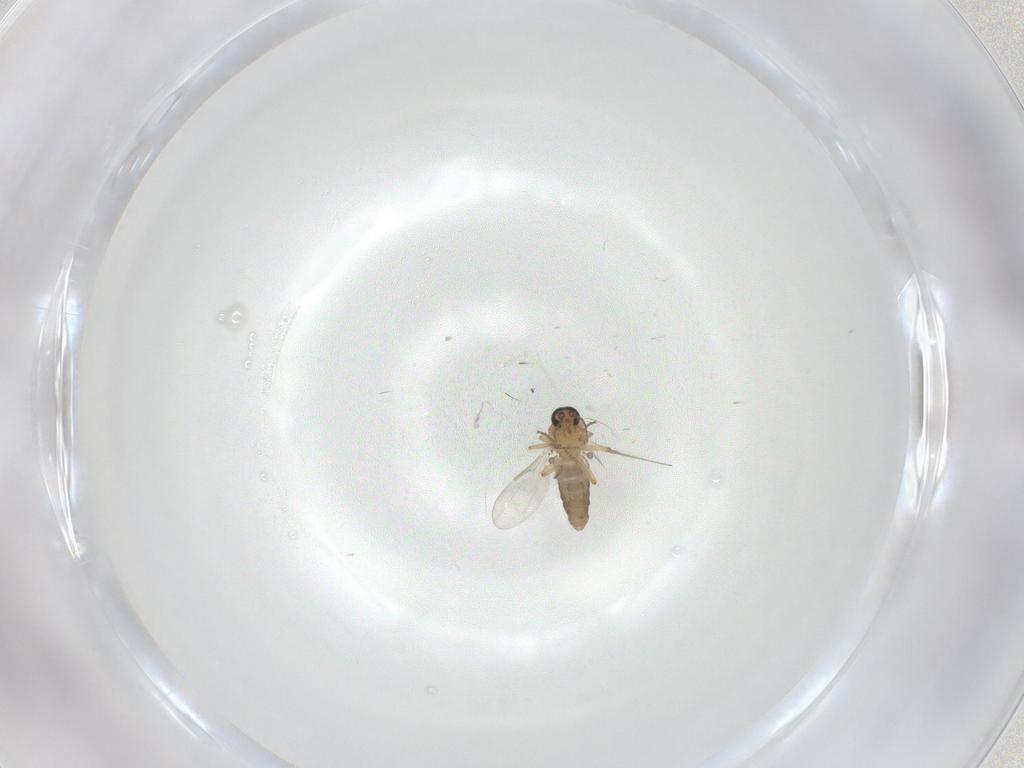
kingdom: Animalia
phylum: Arthropoda
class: Insecta
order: Diptera
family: Ceratopogonidae
